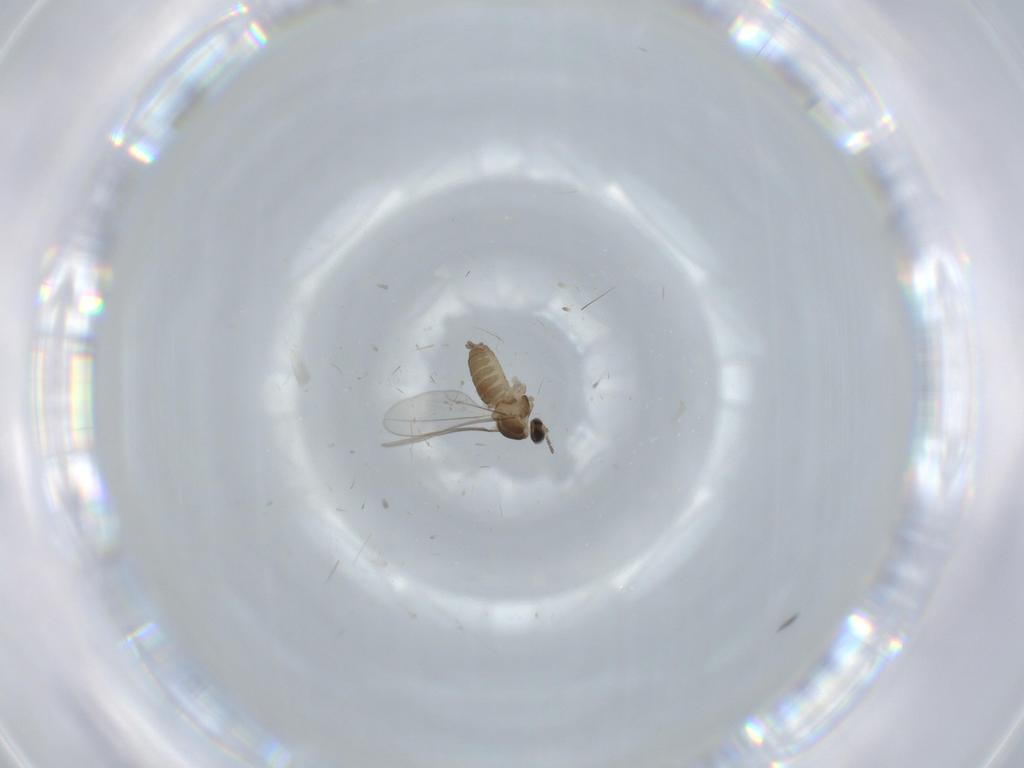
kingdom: Animalia
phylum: Arthropoda
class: Insecta
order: Diptera
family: Cecidomyiidae
